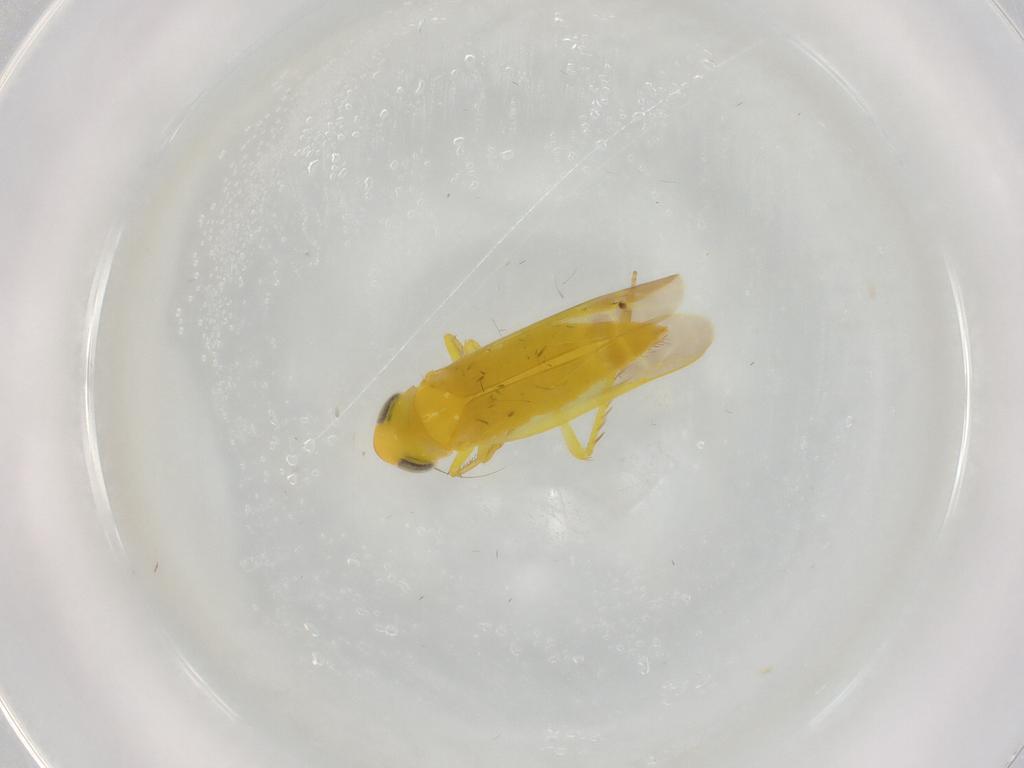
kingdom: Animalia
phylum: Arthropoda
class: Insecta
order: Hemiptera
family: Cicadellidae
